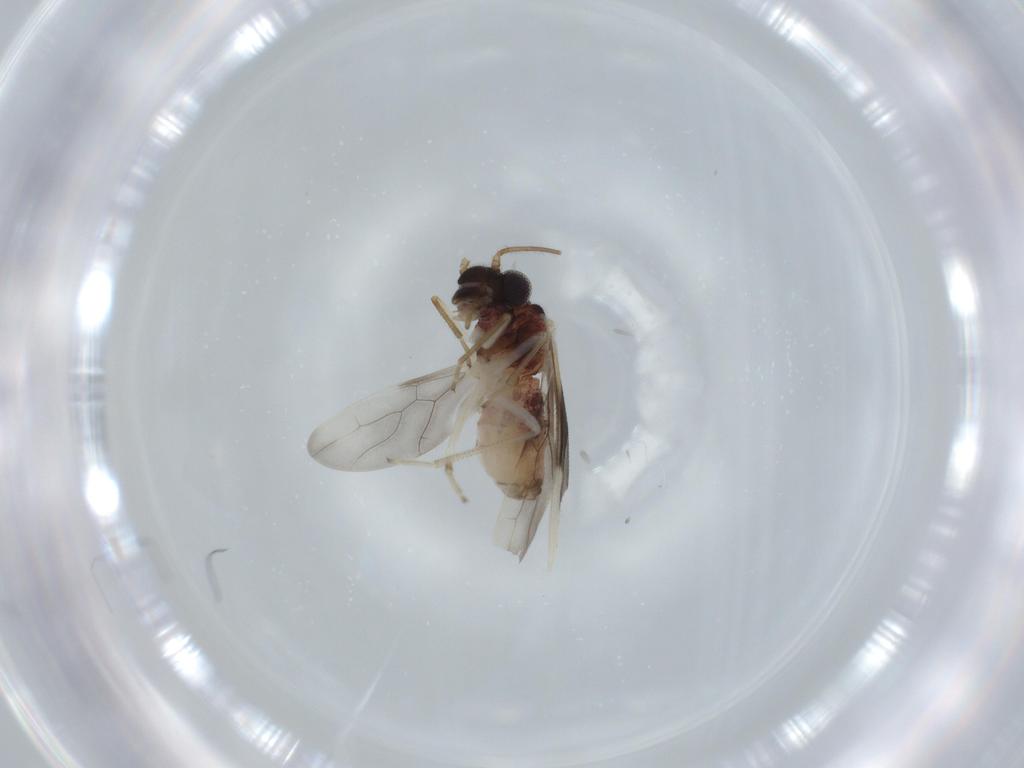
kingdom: Animalia
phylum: Arthropoda
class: Insecta
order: Psocodea
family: Caeciliusidae
